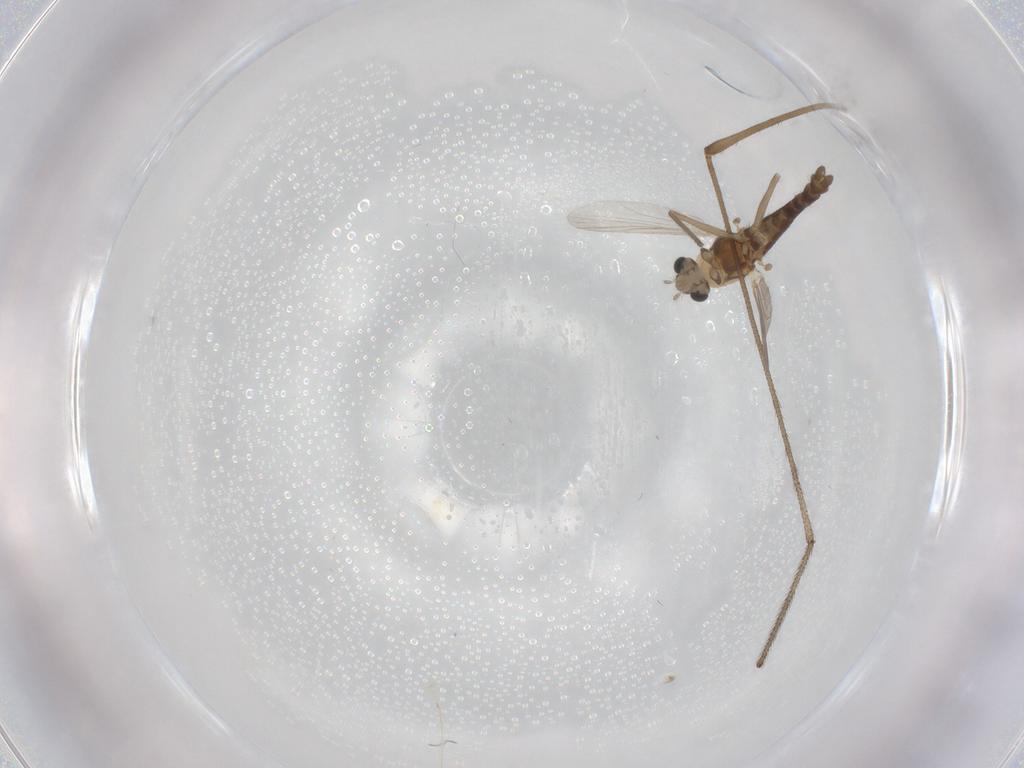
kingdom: Animalia
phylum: Arthropoda
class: Insecta
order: Diptera
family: Chironomidae
